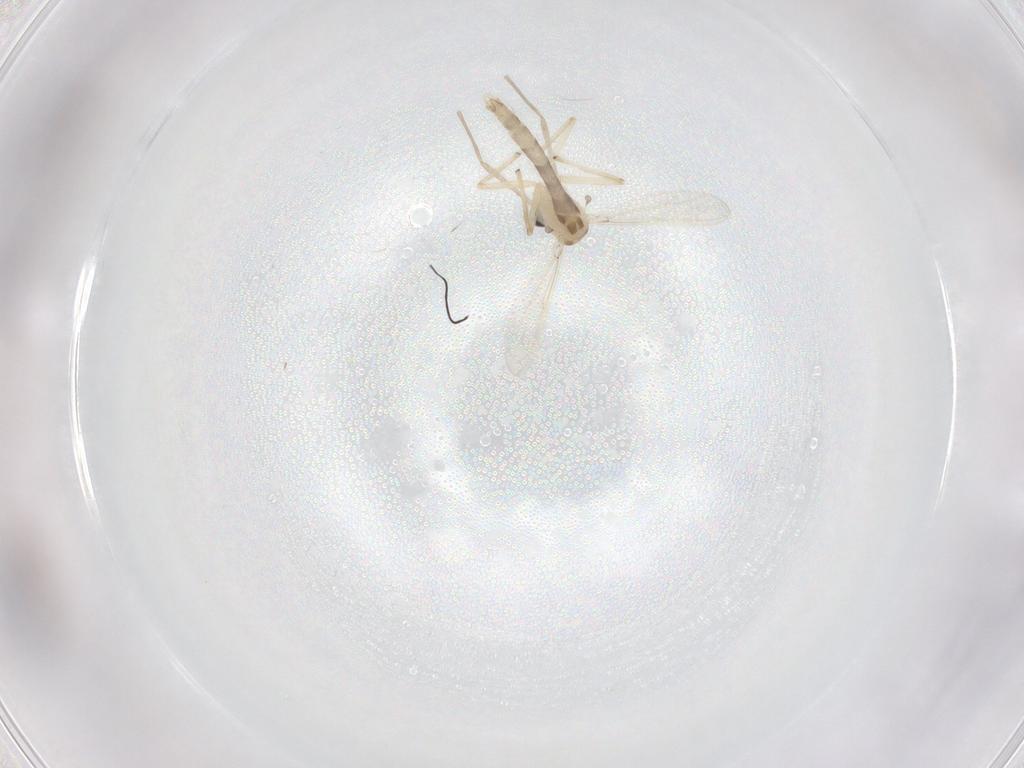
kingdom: Animalia
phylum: Arthropoda
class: Insecta
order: Diptera
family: Chironomidae
